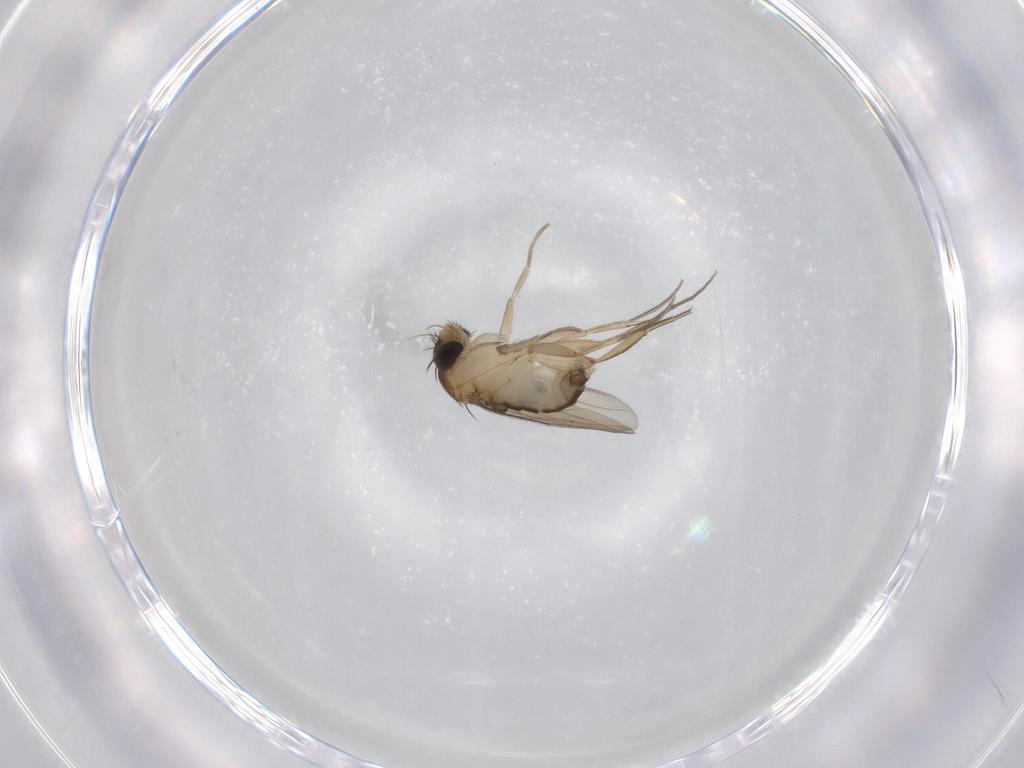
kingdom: Animalia
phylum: Arthropoda
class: Insecta
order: Diptera
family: Phoridae
